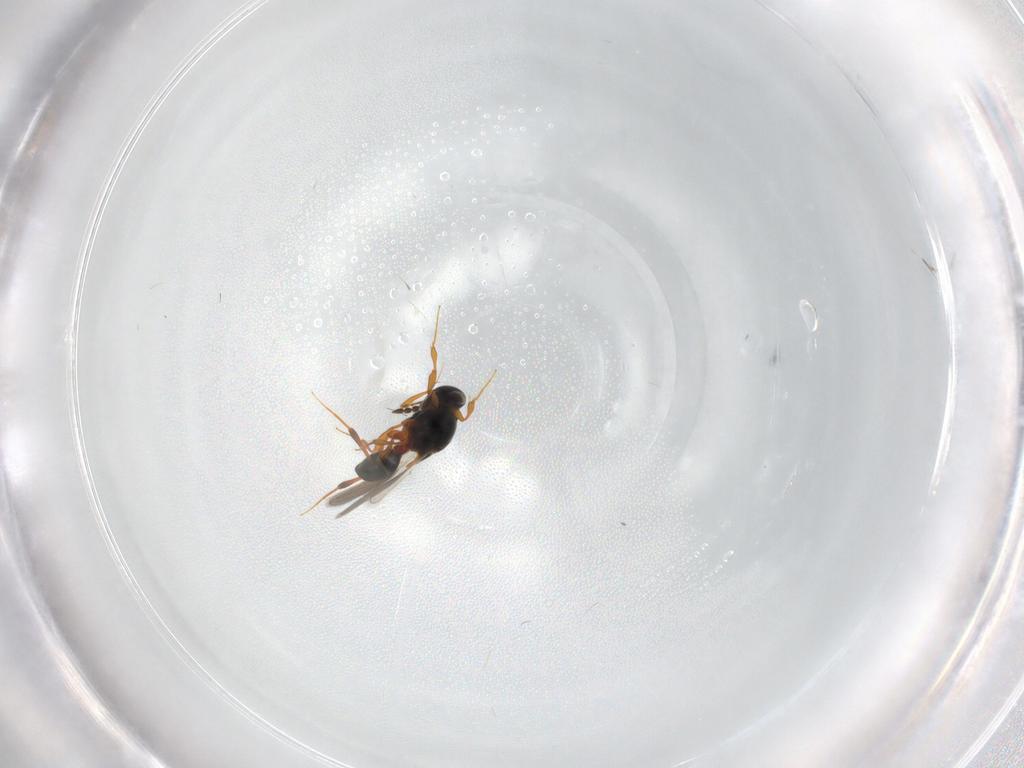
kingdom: Animalia
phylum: Arthropoda
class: Insecta
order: Hymenoptera
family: Platygastridae
